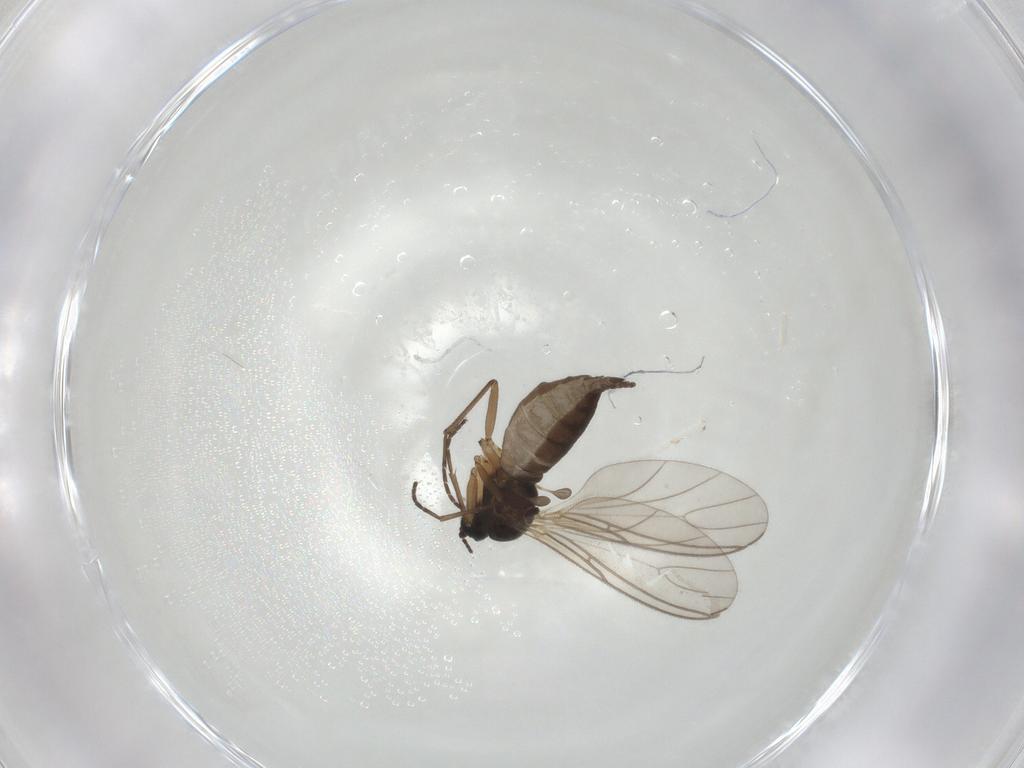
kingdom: Animalia
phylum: Arthropoda
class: Insecta
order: Diptera
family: Sciaridae
